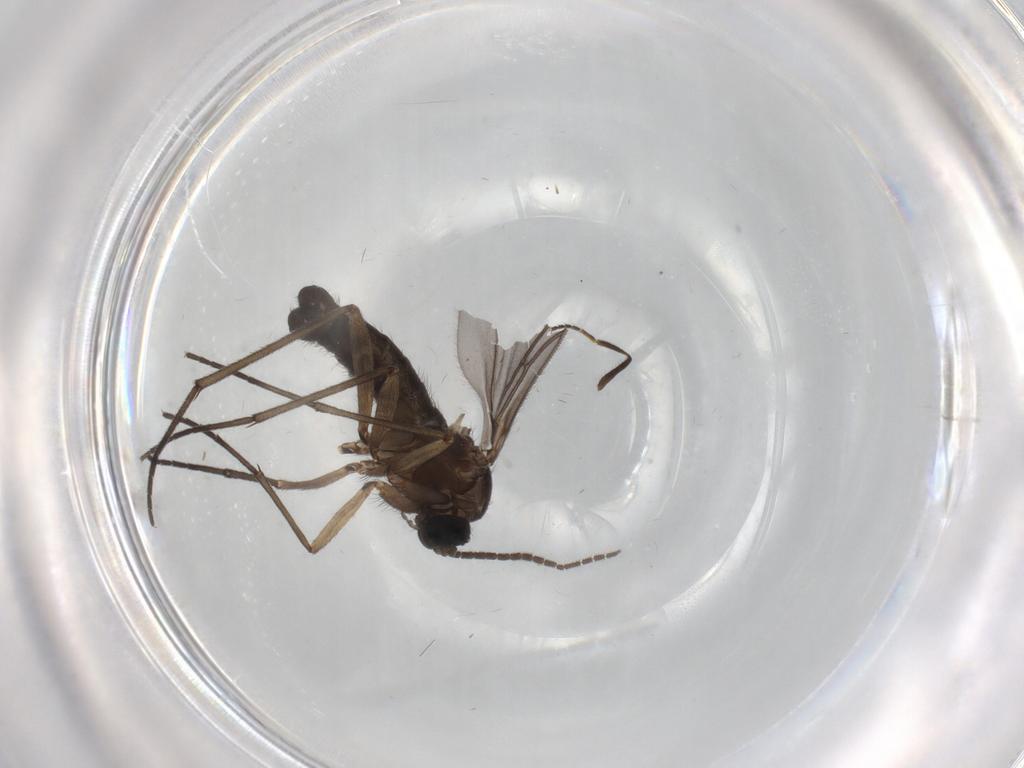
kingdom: Animalia
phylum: Arthropoda
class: Insecta
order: Diptera
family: Sciaridae
